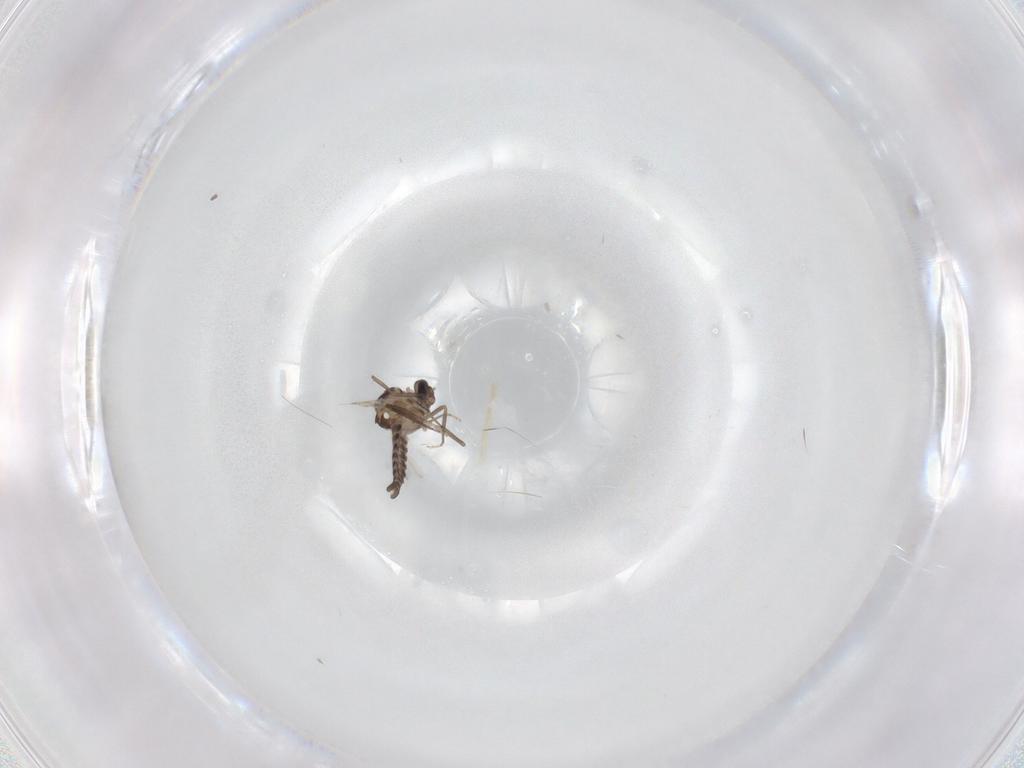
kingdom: Animalia
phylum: Arthropoda
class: Insecta
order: Diptera
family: Ceratopogonidae
